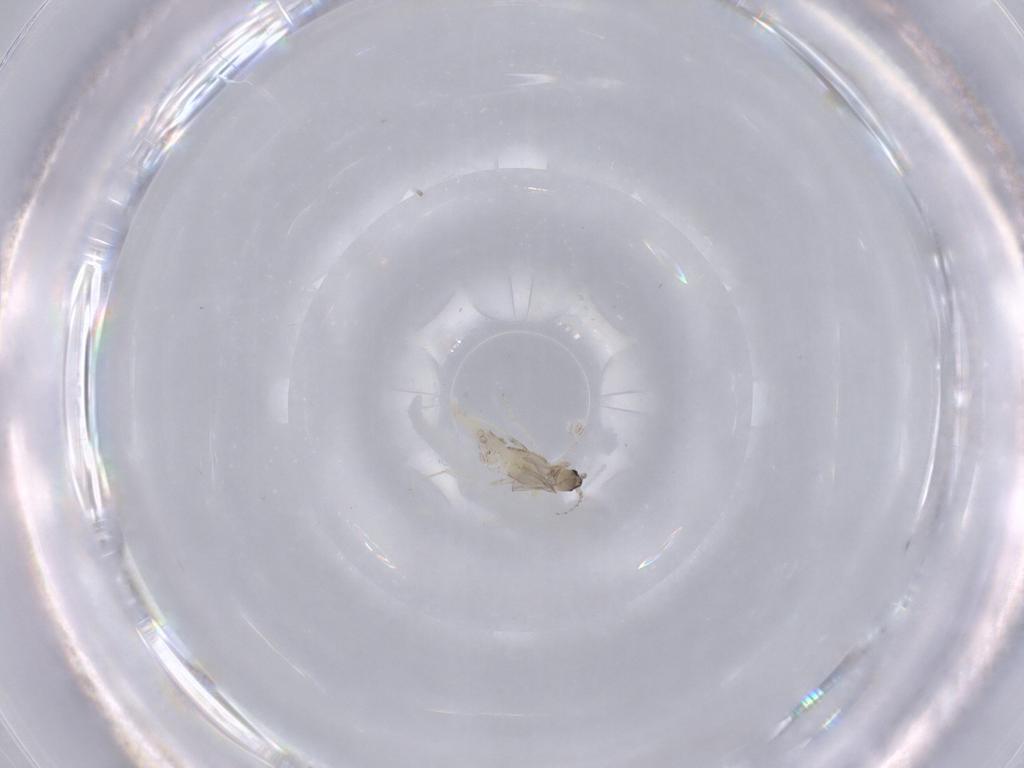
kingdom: Animalia
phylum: Arthropoda
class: Insecta
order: Diptera
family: Cecidomyiidae
